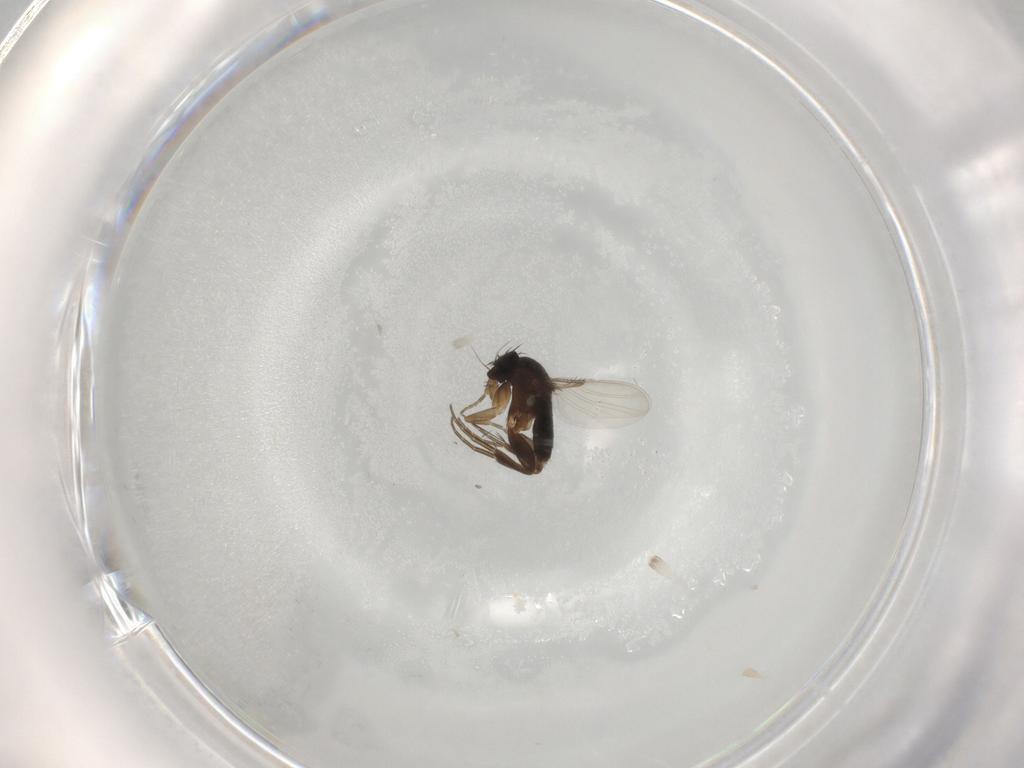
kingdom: Animalia
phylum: Arthropoda
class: Insecta
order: Diptera
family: Phoridae
